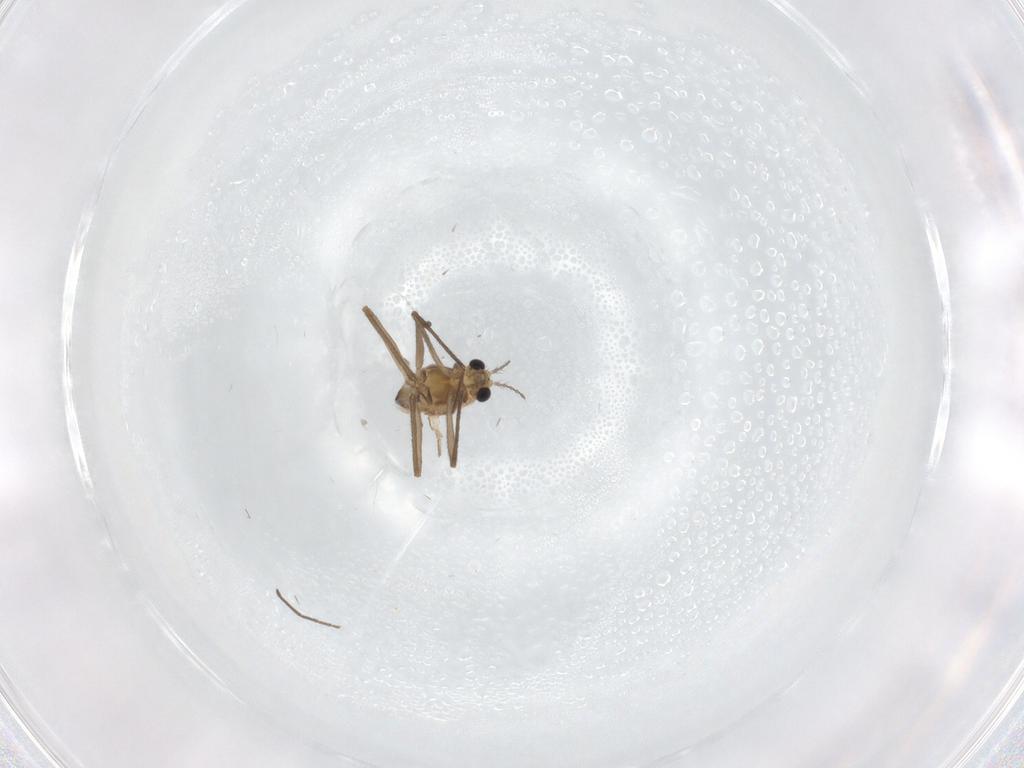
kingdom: Animalia
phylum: Arthropoda
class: Insecta
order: Diptera
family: Chironomidae
